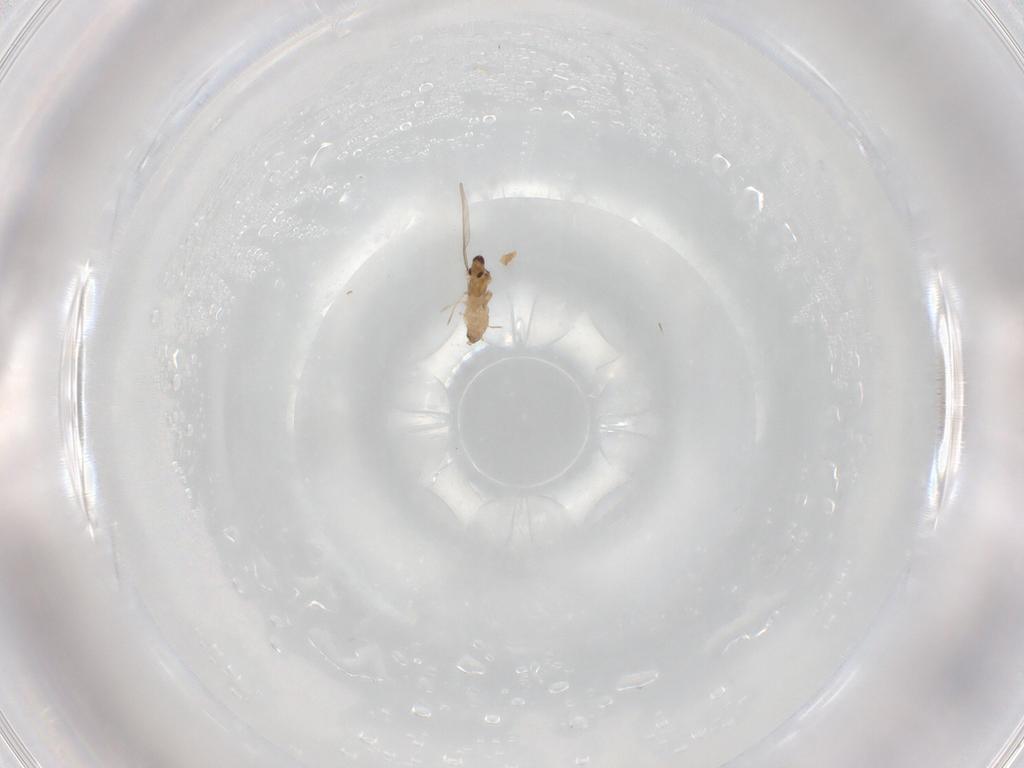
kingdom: Animalia
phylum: Arthropoda
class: Insecta
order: Diptera
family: Cecidomyiidae
